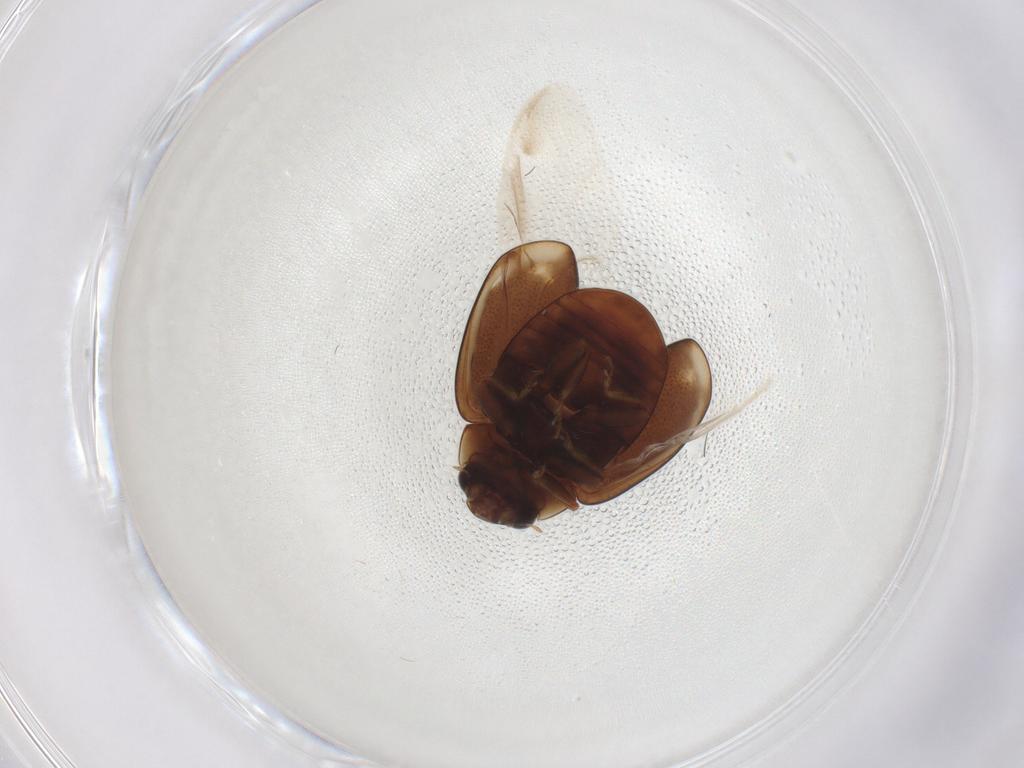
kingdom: Animalia
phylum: Arthropoda
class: Insecta
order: Coleoptera
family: Coccinellidae
